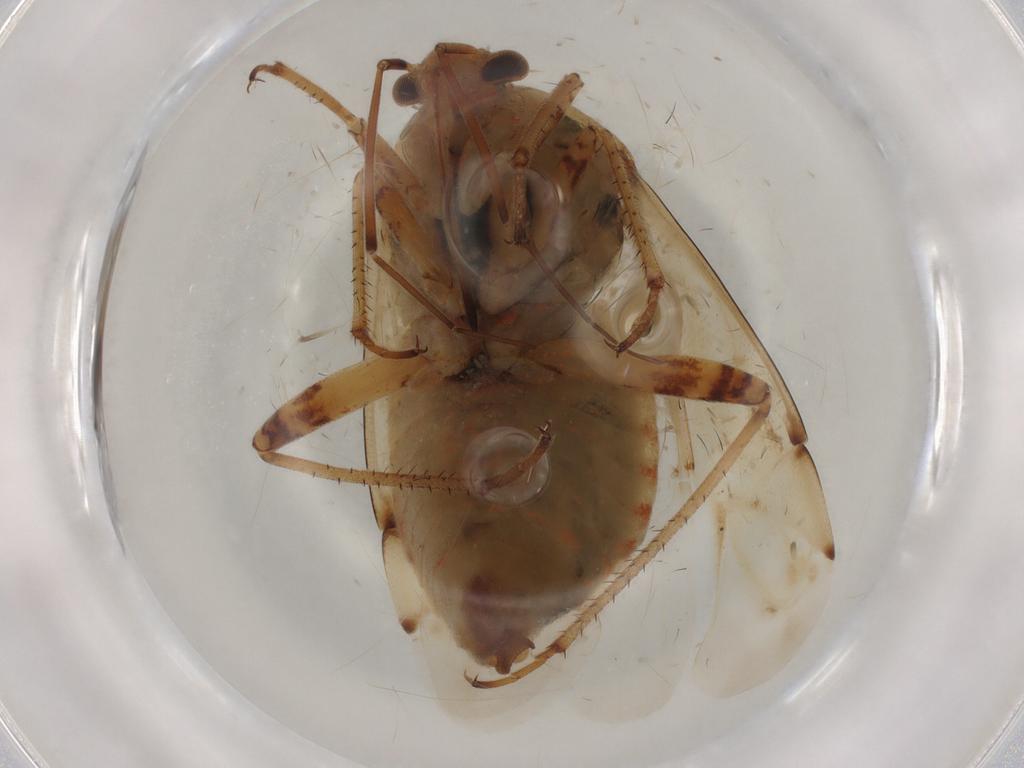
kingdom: Animalia
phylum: Arthropoda
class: Insecta
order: Hemiptera
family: Miridae
